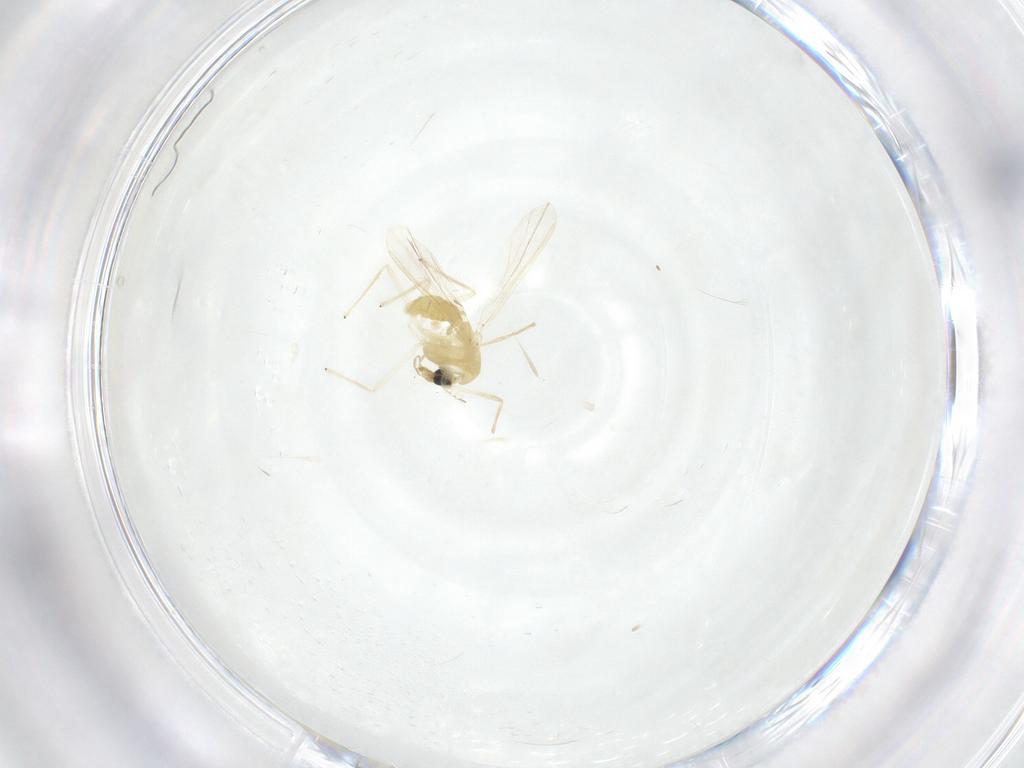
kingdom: Animalia
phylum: Arthropoda
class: Insecta
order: Diptera
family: Chironomidae
